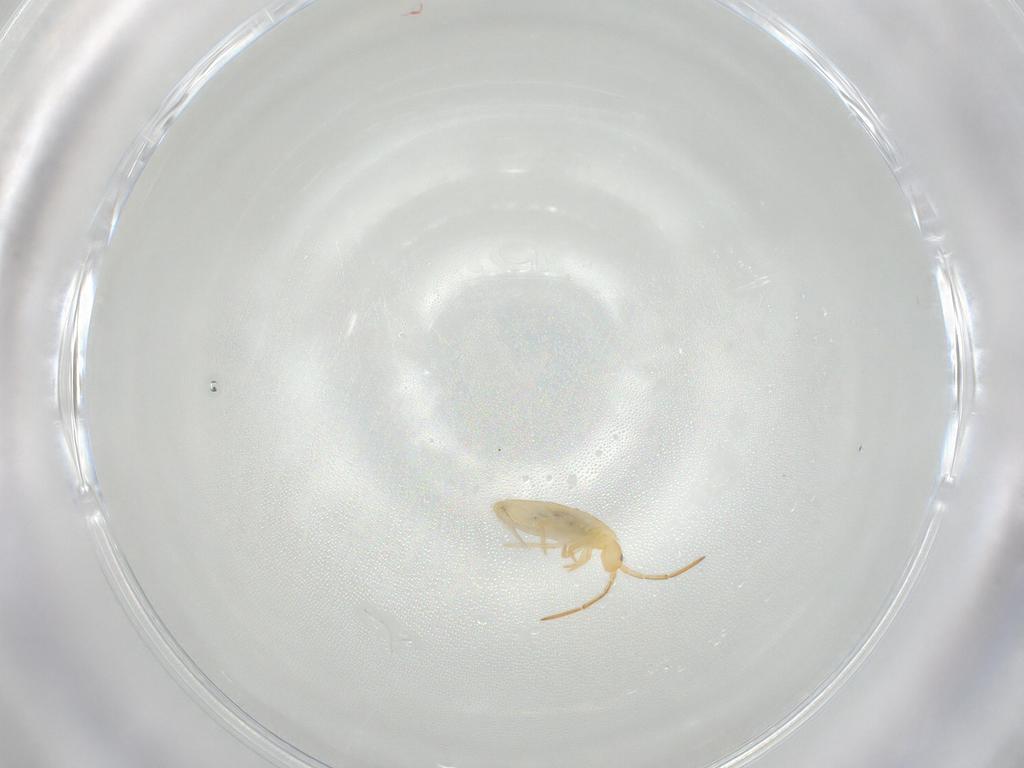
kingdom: Animalia
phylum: Arthropoda
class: Collembola
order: Entomobryomorpha
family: Entomobryidae
